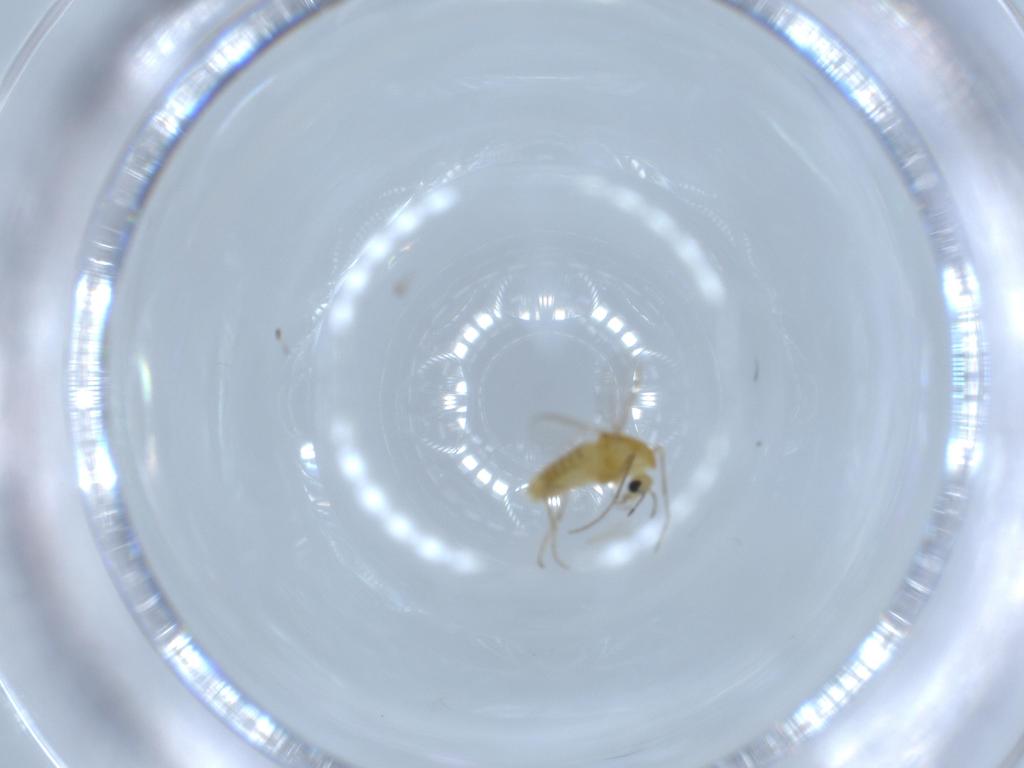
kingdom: Animalia
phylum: Arthropoda
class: Insecta
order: Diptera
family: Chironomidae
